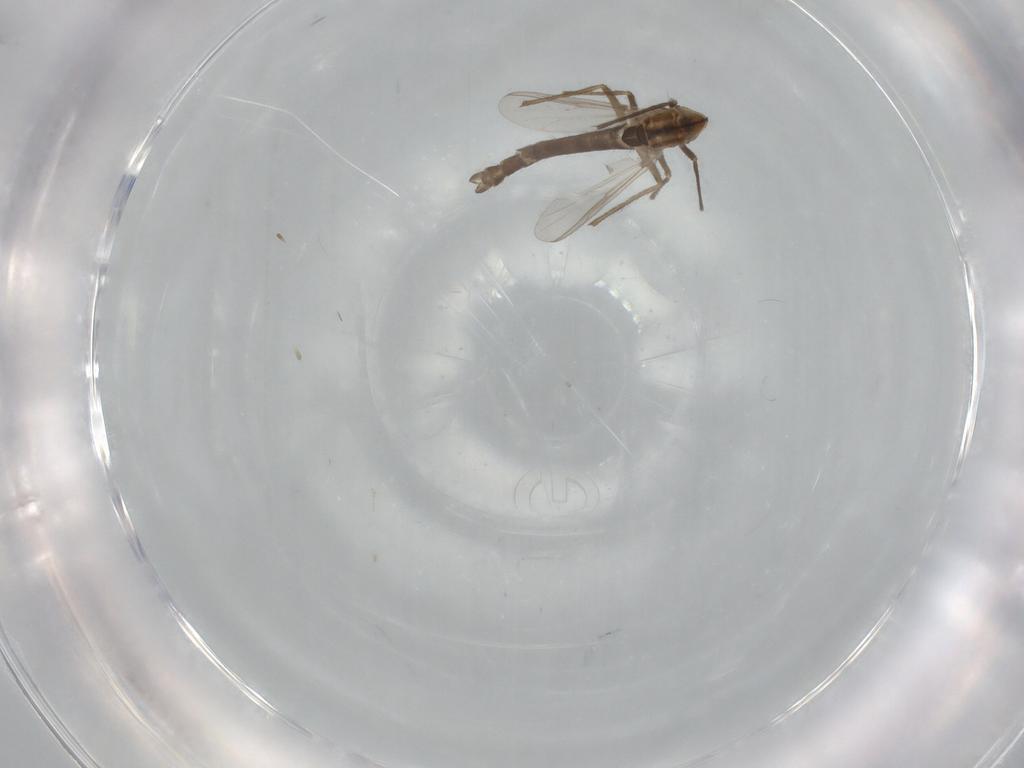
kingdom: Animalia
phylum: Arthropoda
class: Insecta
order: Diptera
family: Chironomidae
